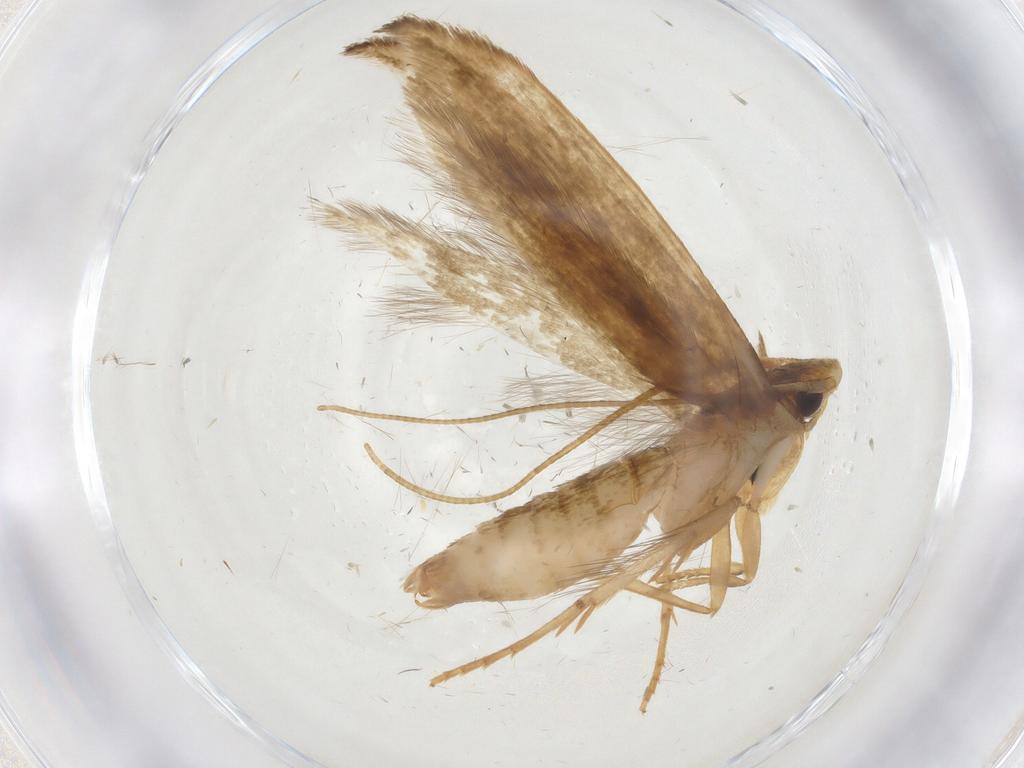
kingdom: Animalia
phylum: Arthropoda
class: Insecta
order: Lepidoptera
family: Tineidae
